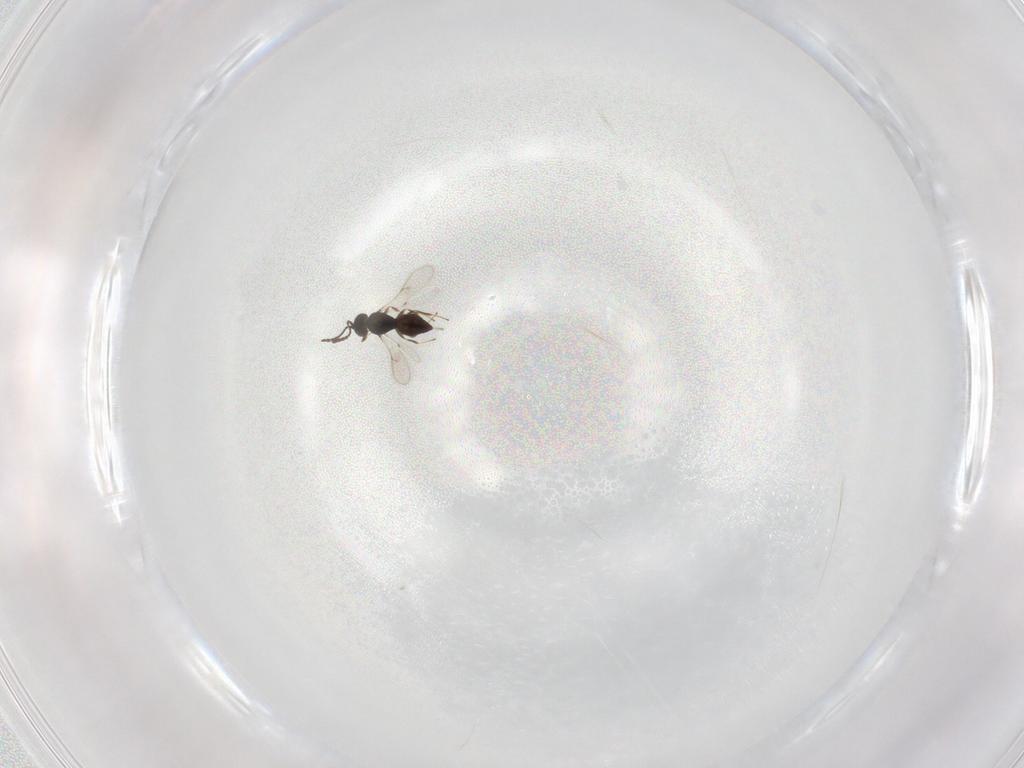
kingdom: Animalia
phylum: Arthropoda
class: Insecta
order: Hymenoptera
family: Scelionidae
